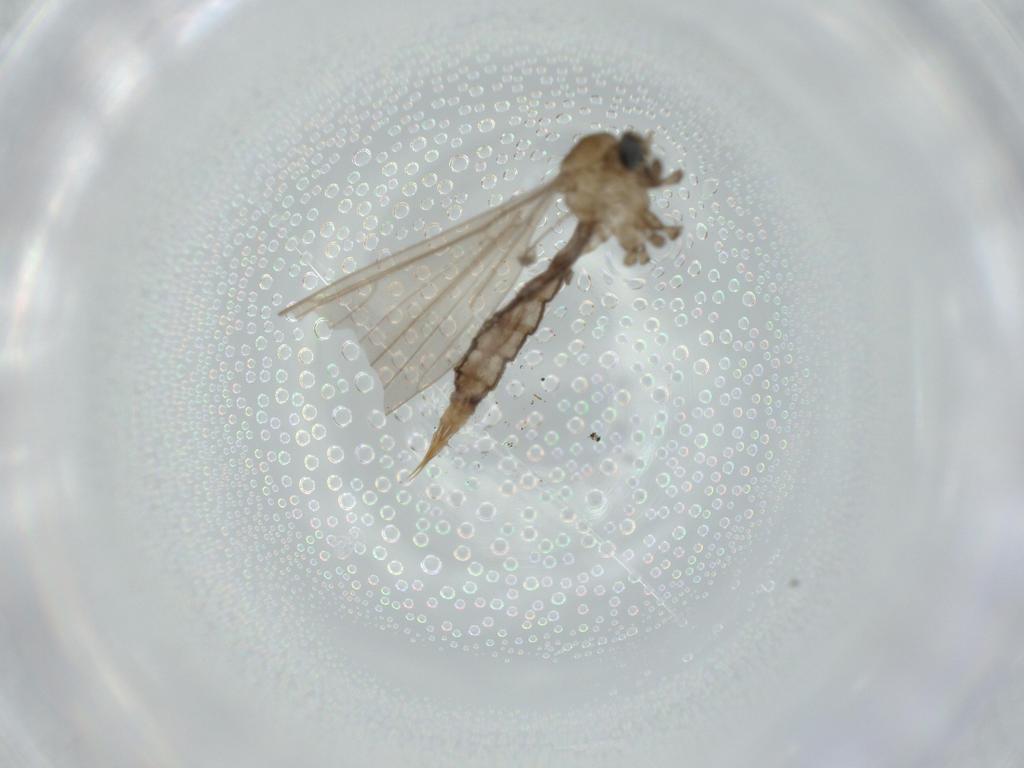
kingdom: Animalia
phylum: Arthropoda
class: Insecta
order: Diptera
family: Limoniidae
